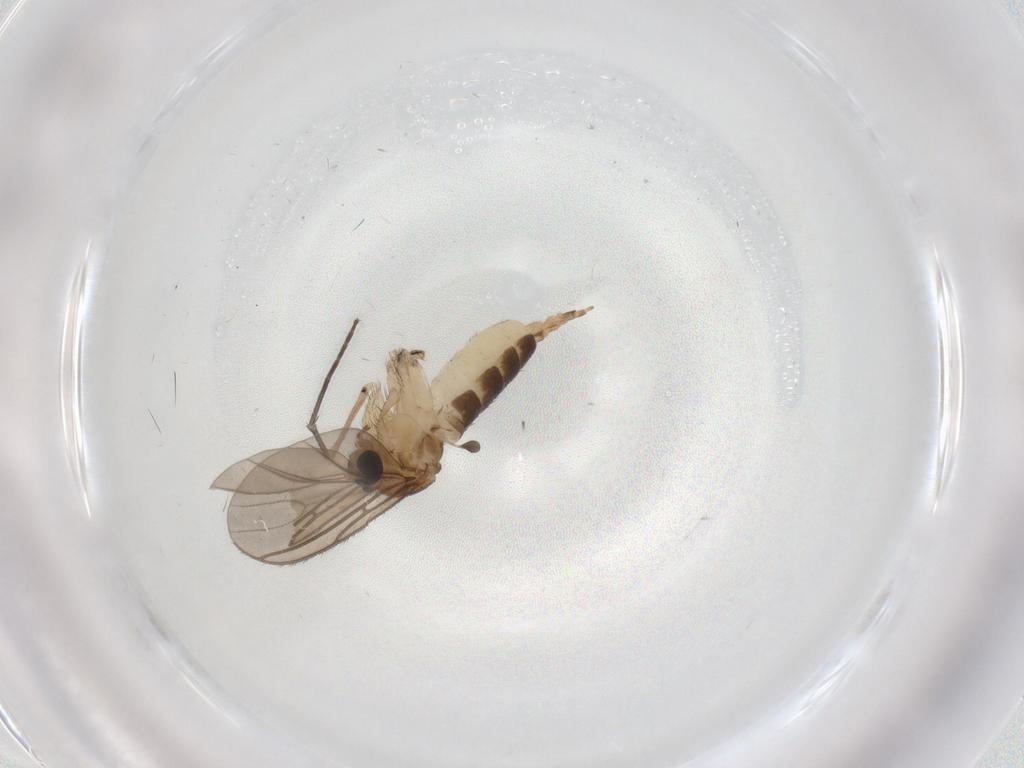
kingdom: Animalia
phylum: Arthropoda
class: Insecta
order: Diptera
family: Sciaridae
